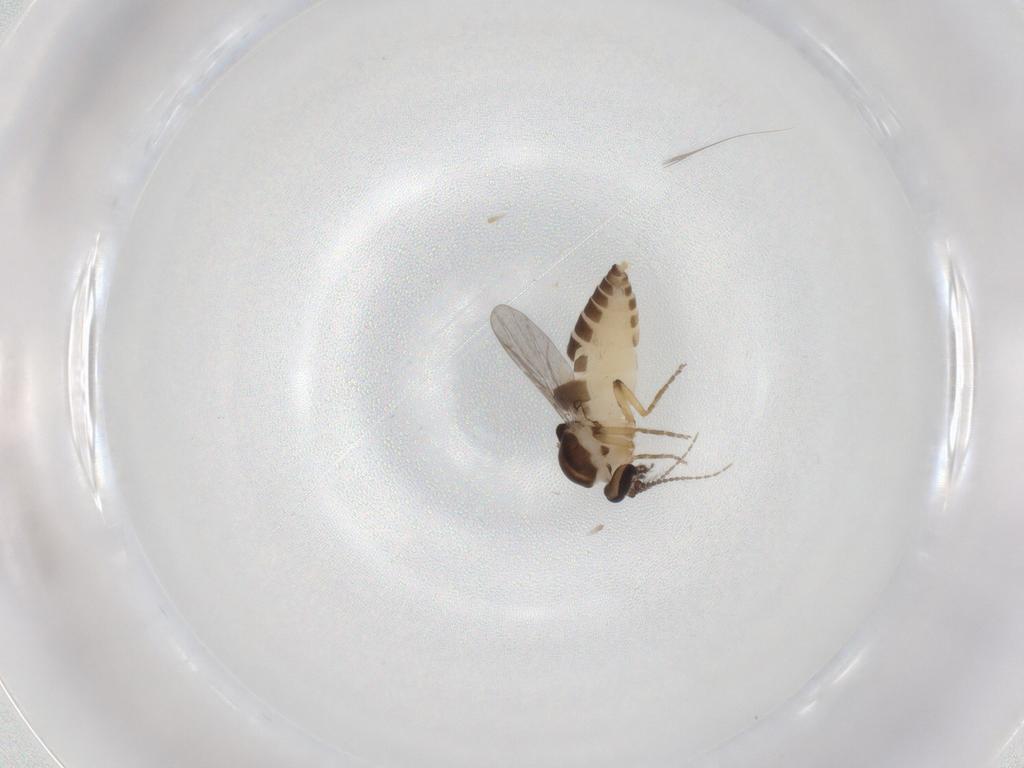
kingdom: Animalia
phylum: Arthropoda
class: Insecta
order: Diptera
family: Ceratopogonidae
